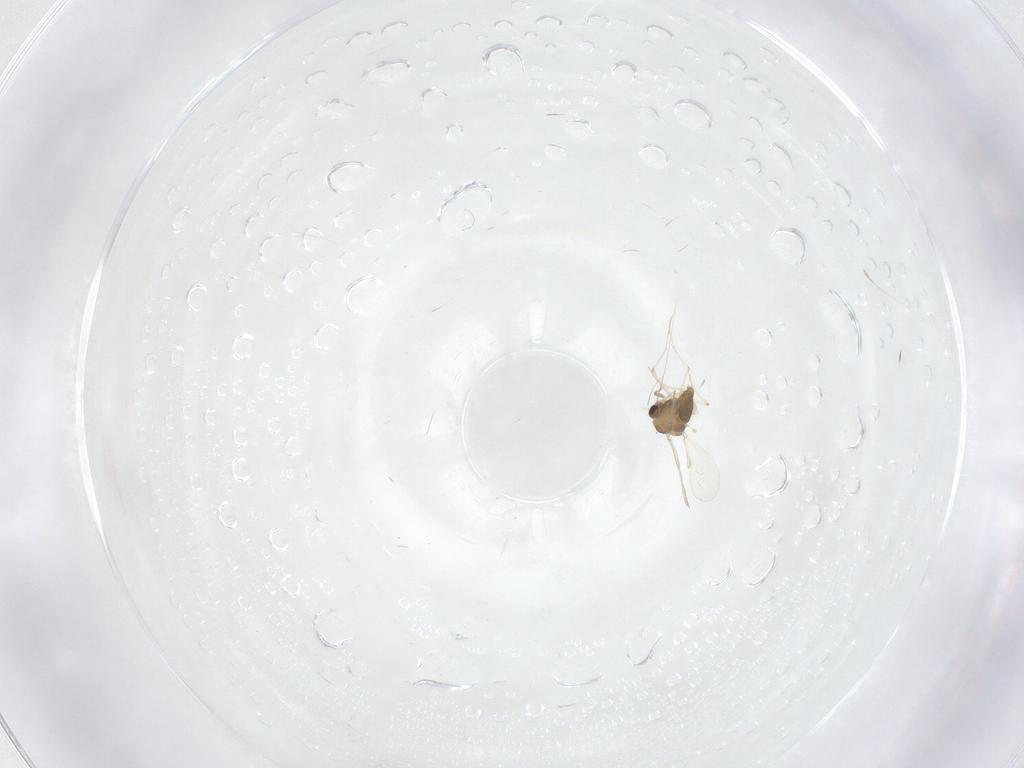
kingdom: Animalia
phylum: Arthropoda
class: Insecta
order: Diptera
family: Chironomidae
